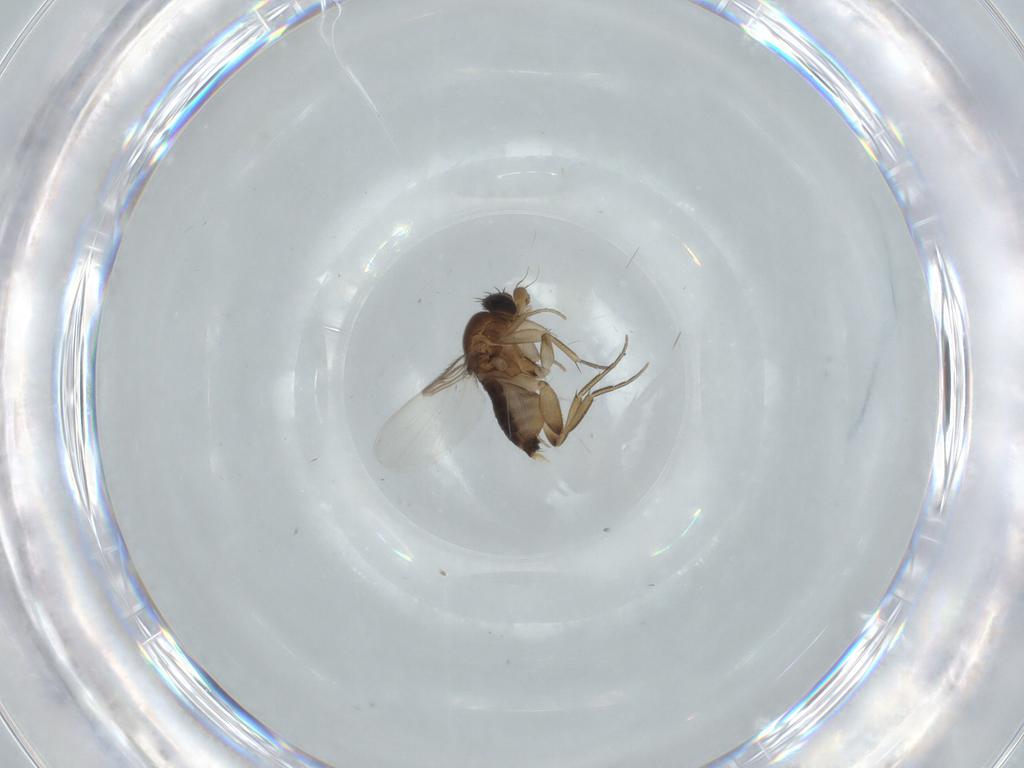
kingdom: Animalia
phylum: Arthropoda
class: Insecta
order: Diptera
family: Phoridae
